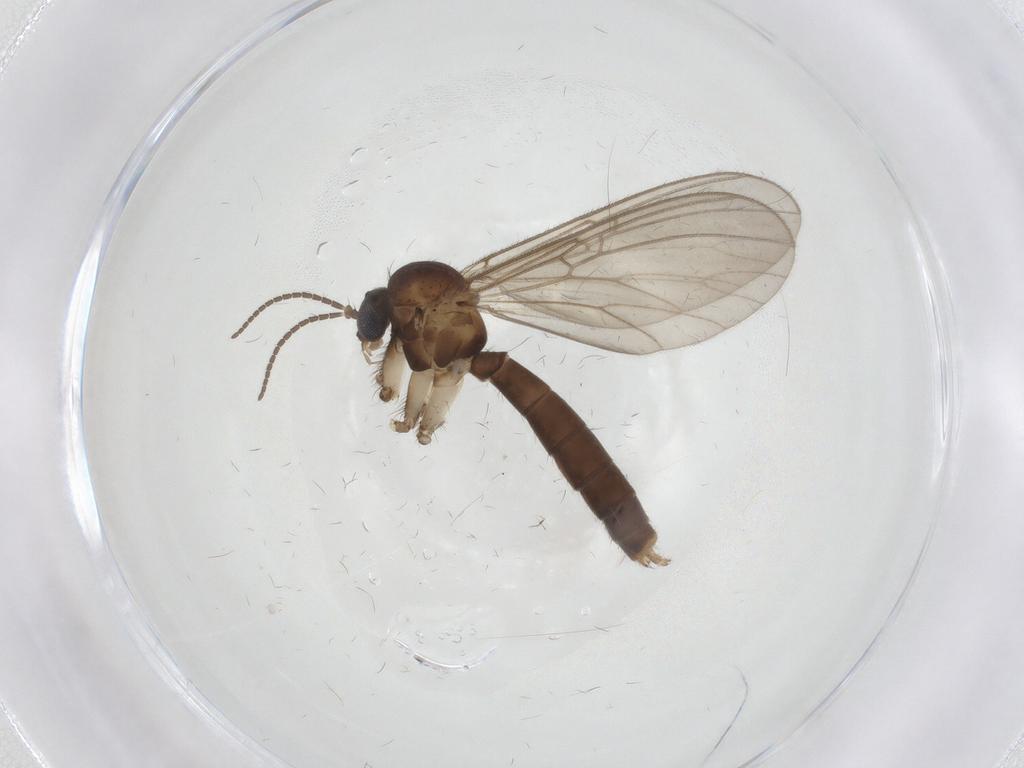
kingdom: Animalia
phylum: Arthropoda
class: Insecta
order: Diptera
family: Mycetophilidae
